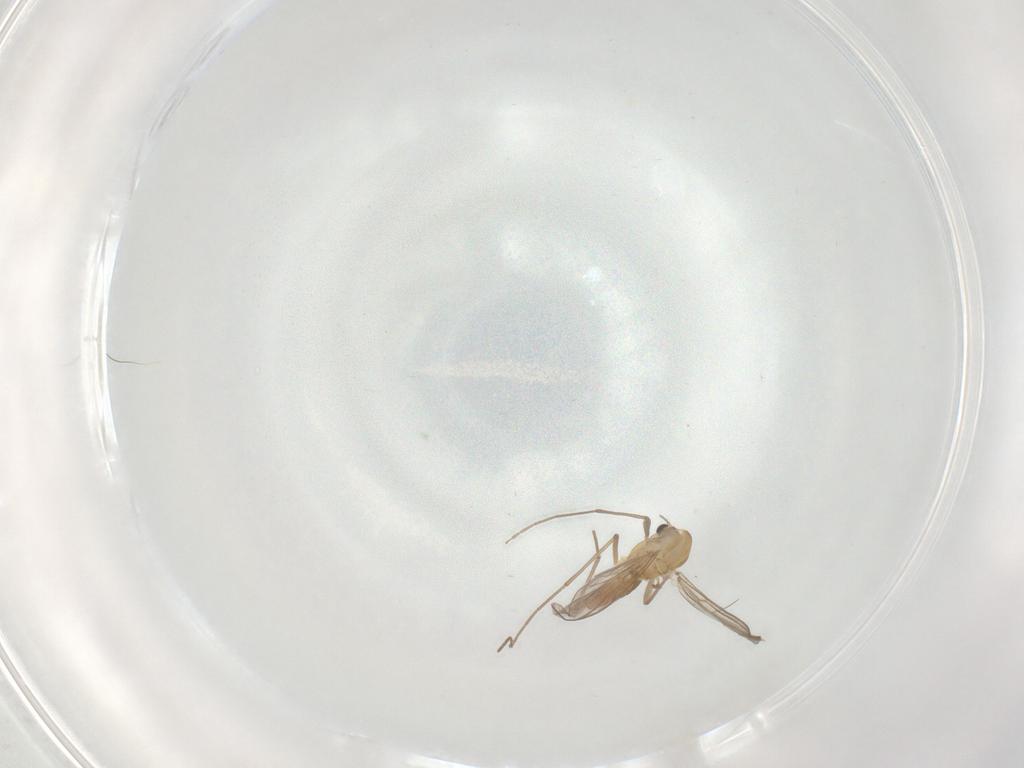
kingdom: Animalia
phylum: Arthropoda
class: Insecta
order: Diptera
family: Chironomidae
